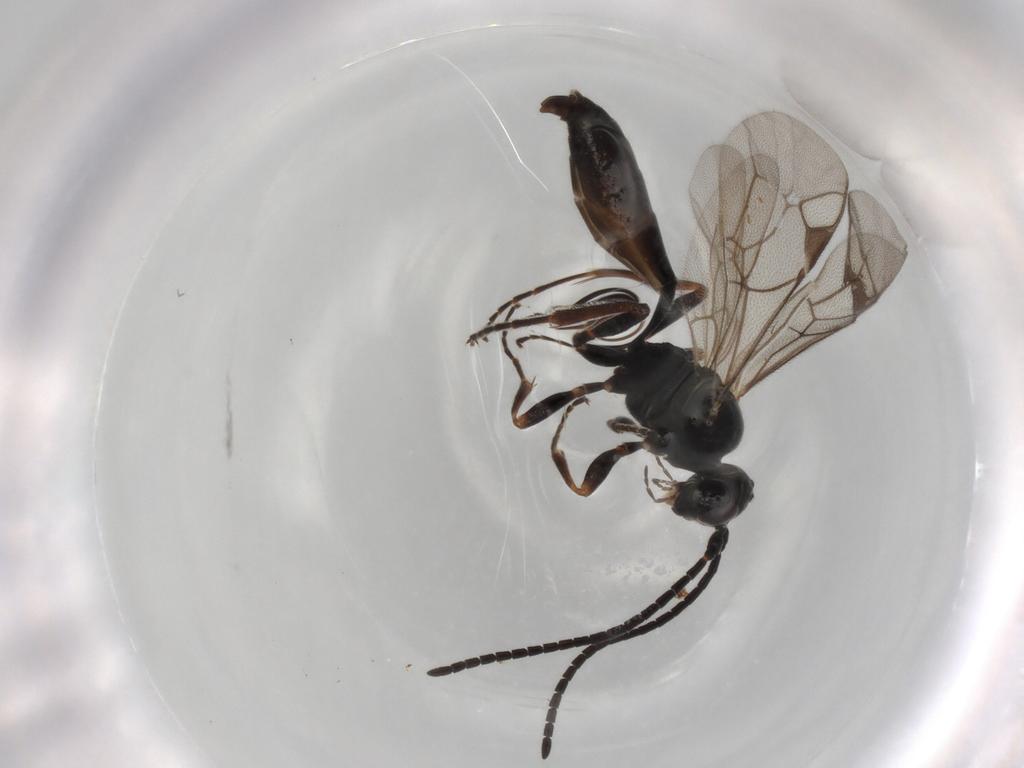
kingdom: Animalia
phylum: Arthropoda
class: Insecta
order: Hymenoptera
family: Ichneumonidae
